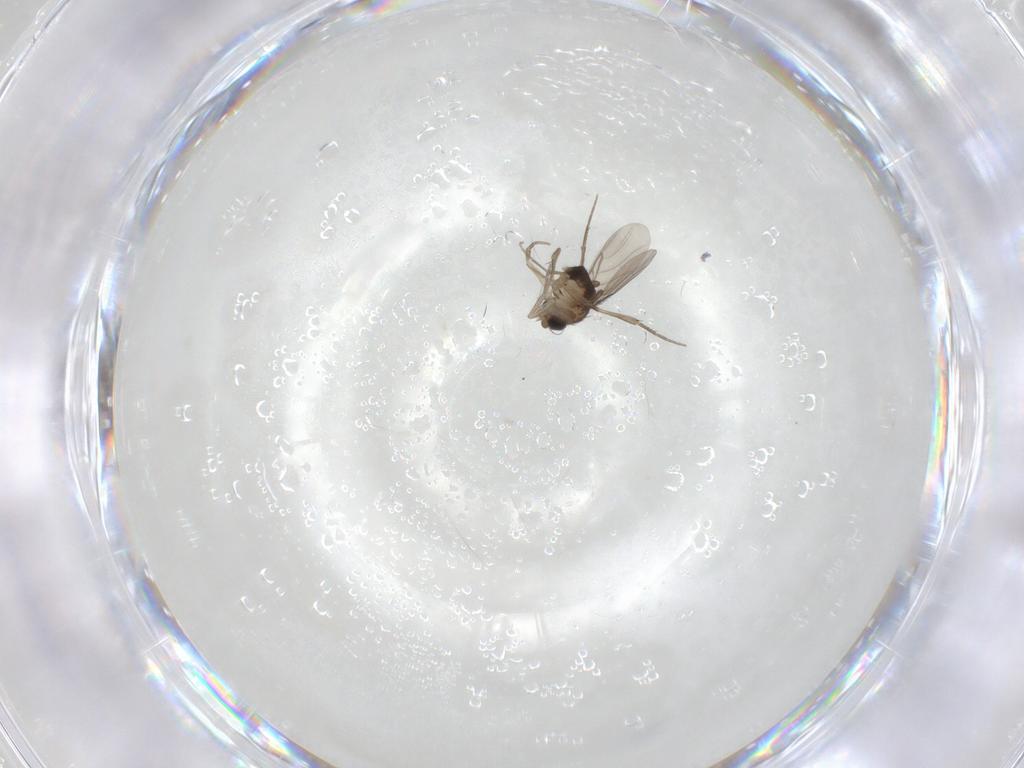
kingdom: Animalia
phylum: Arthropoda
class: Insecta
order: Diptera
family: Phoridae
